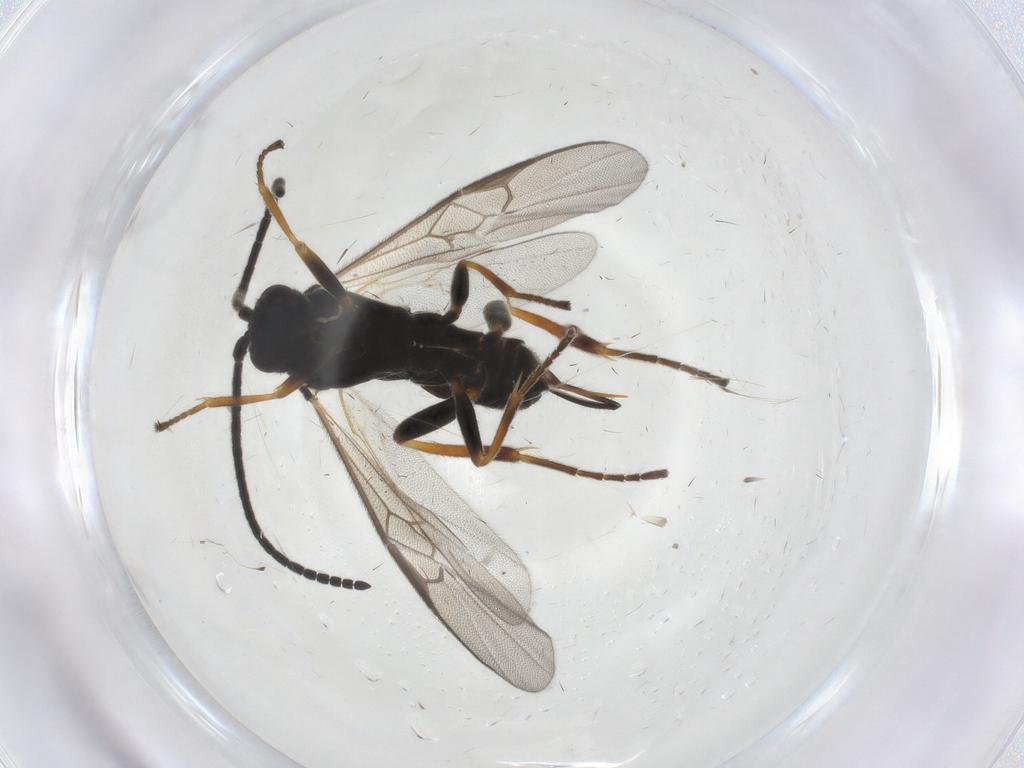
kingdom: Animalia
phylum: Arthropoda
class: Insecta
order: Hymenoptera
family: Braconidae
